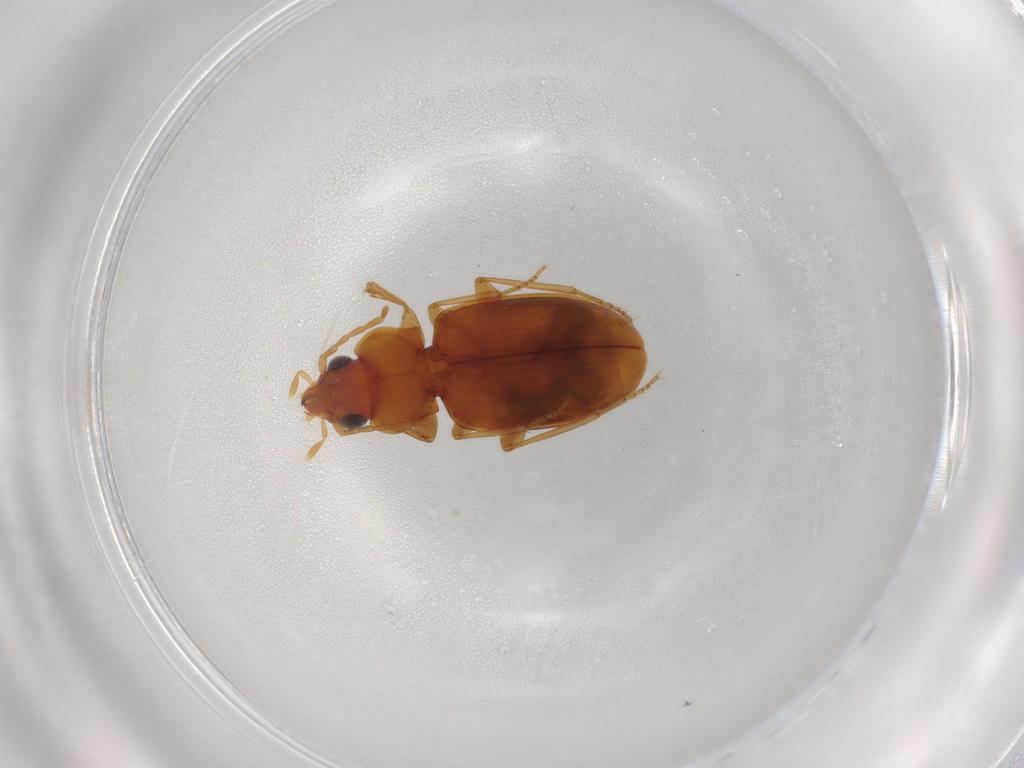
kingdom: Animalia
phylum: Arthropoda
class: Insecta
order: Coleoptera
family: Carabidae
